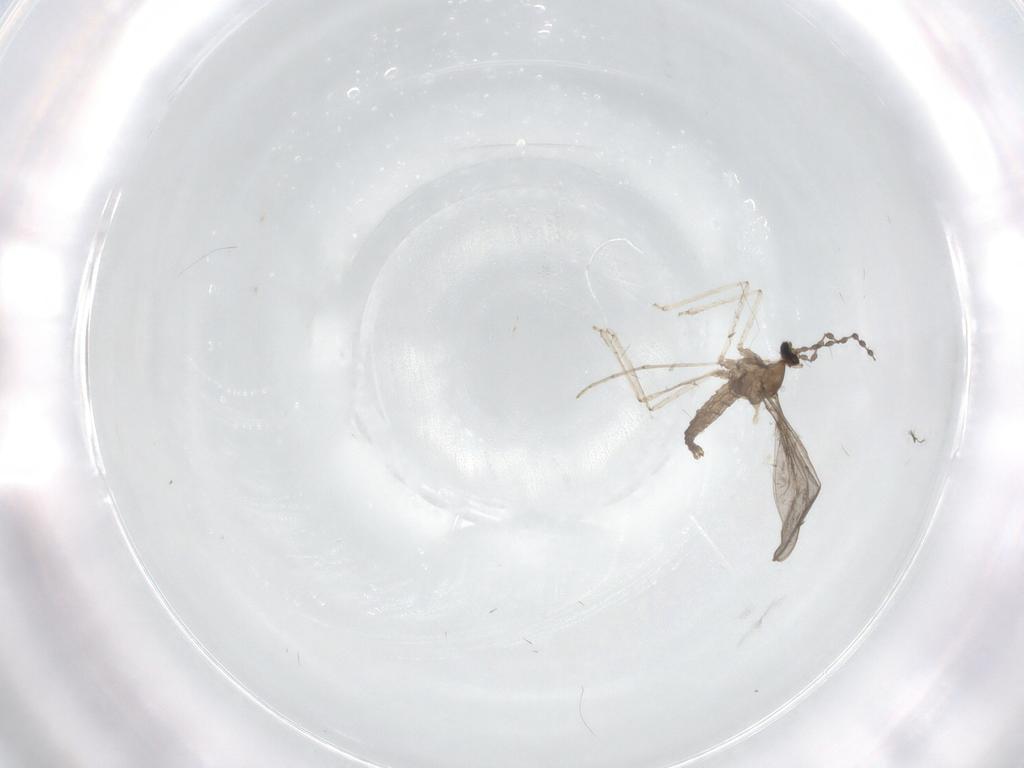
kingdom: Animalia
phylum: Arthropoda
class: Insecta
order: Diptera
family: Cecidomyiidae
